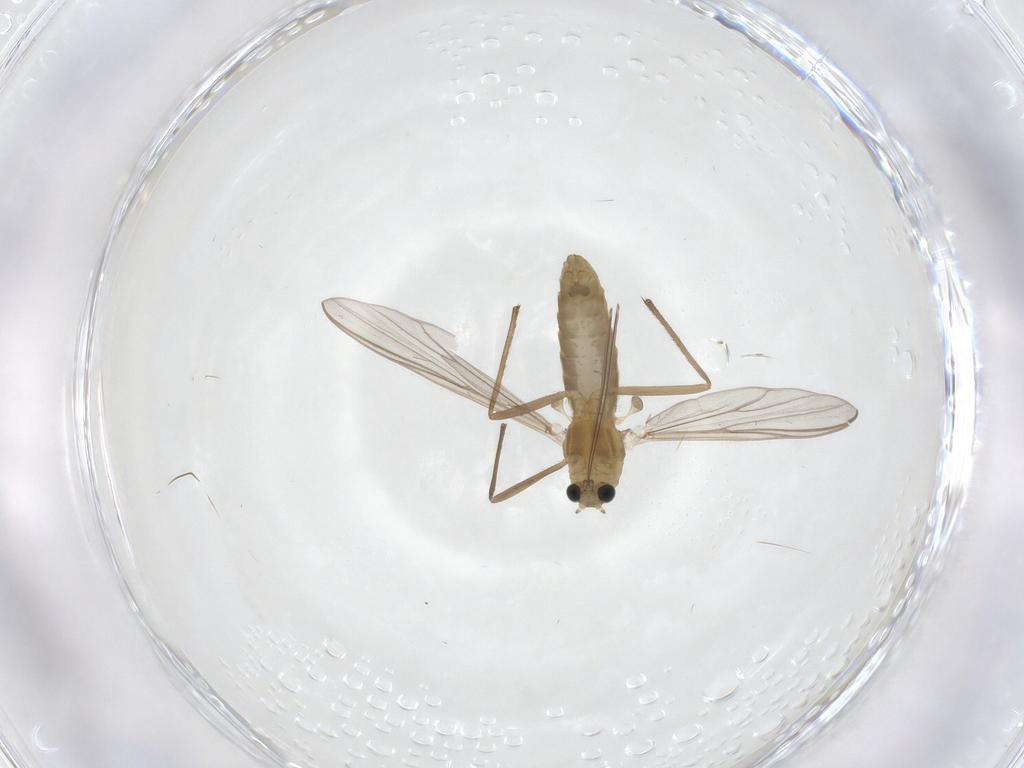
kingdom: Animalia
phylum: Arthropoda
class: Insecta
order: Diptera
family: Chironomidae
